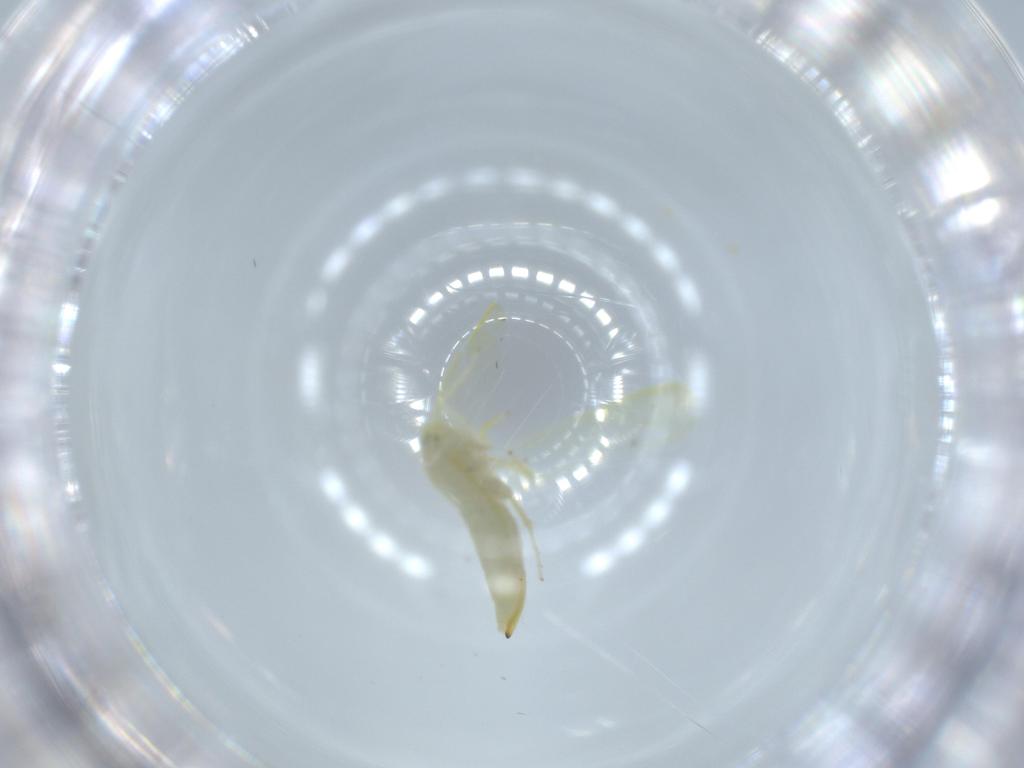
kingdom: Animalia
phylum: Arthropoda
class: Insecta
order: Hemiptera
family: Cicadellidae
